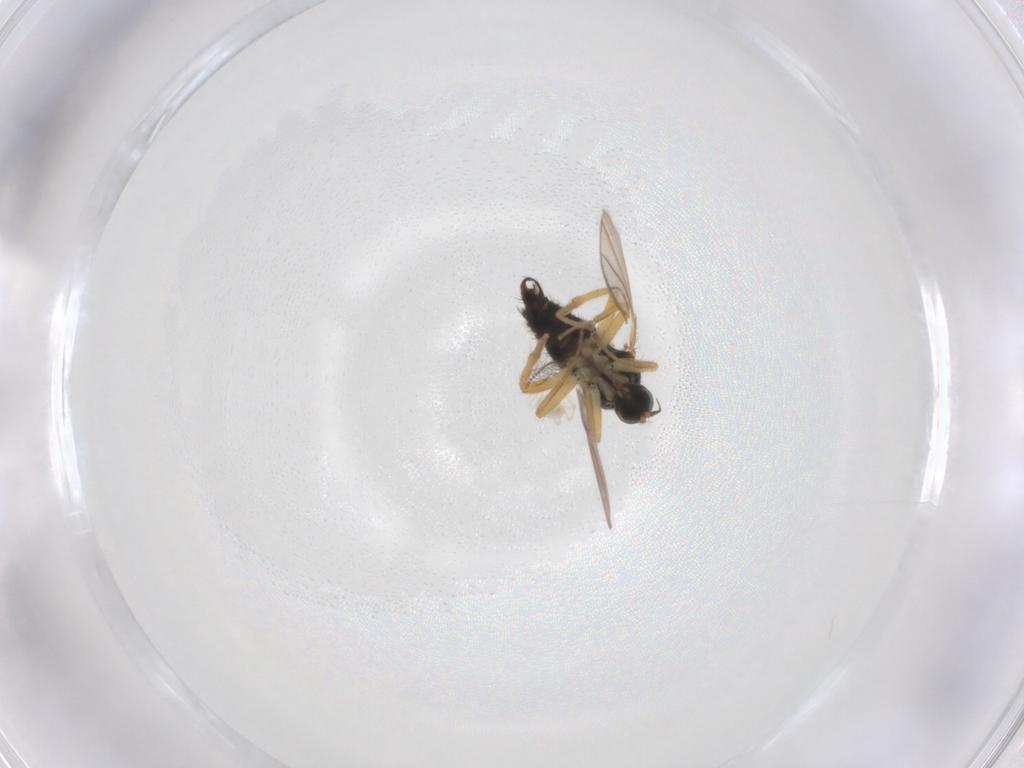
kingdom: Animalia
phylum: Arthropoda
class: Insecta
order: Diptera
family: Hybotidae
